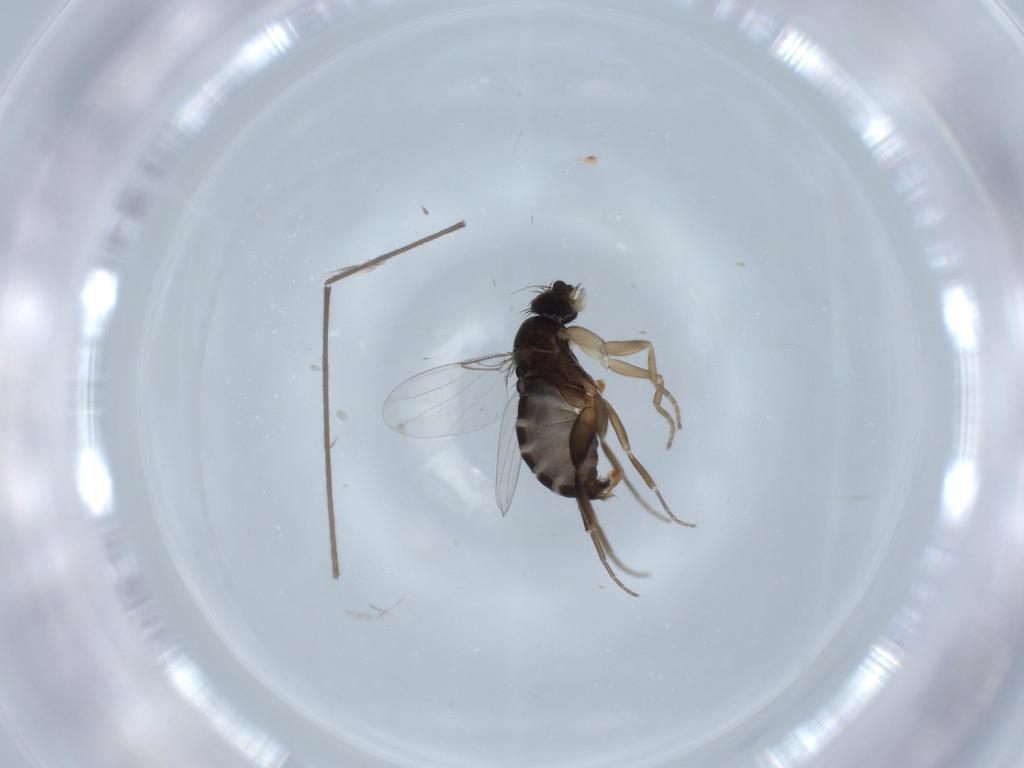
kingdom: Animalia
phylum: Arthropoda
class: Insecta
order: Diptera
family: Phoridae
